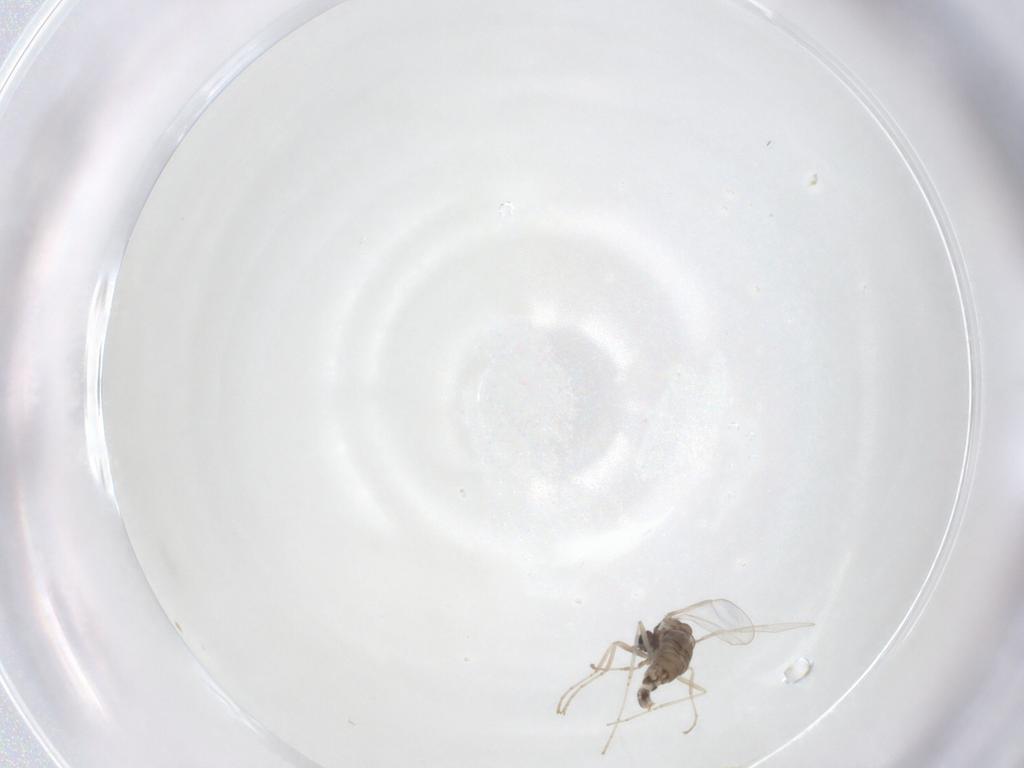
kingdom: Animalia
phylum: Arthropoda
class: Insecta
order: Diptera
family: Cecidomyiidae
